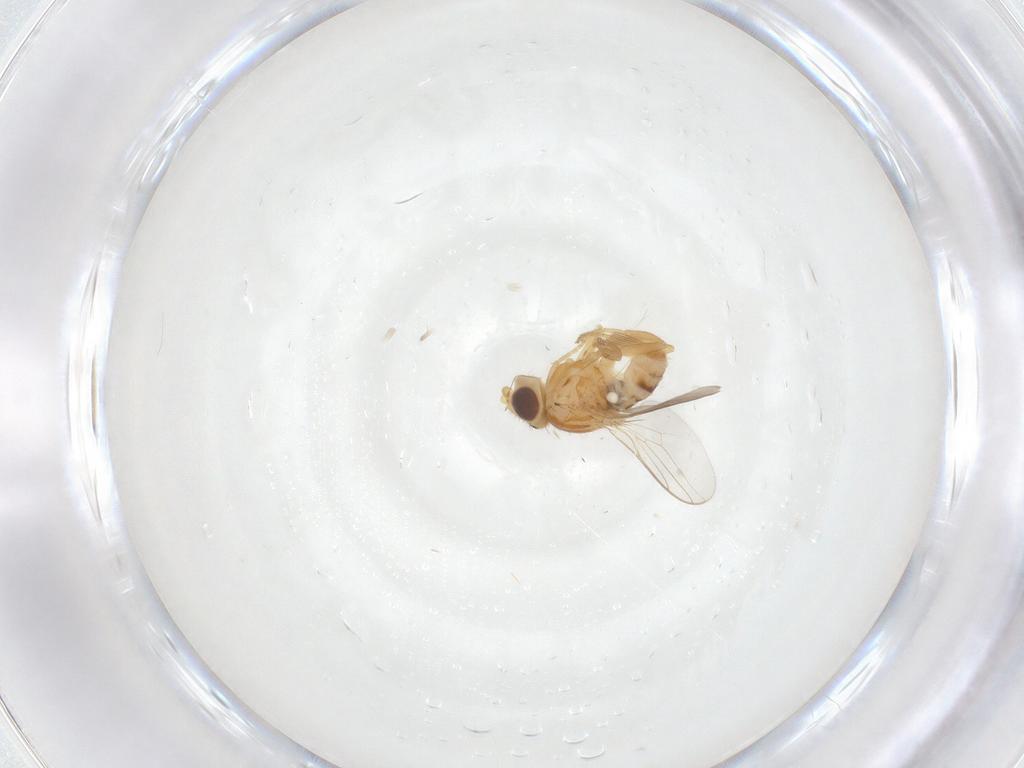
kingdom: Animalia
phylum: Arthropoda
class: Insecta
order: Diptera
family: Chloropidae
